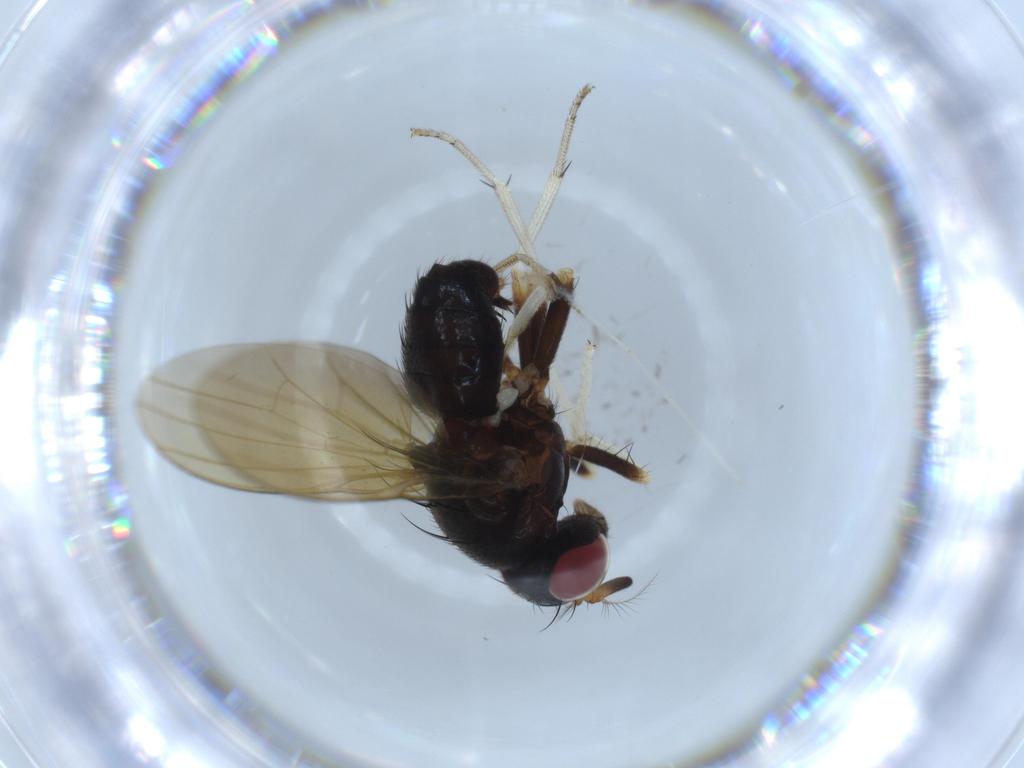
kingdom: Animalia
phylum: Arthropoda
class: Insecta
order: Diptera
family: Lauxaniidae
